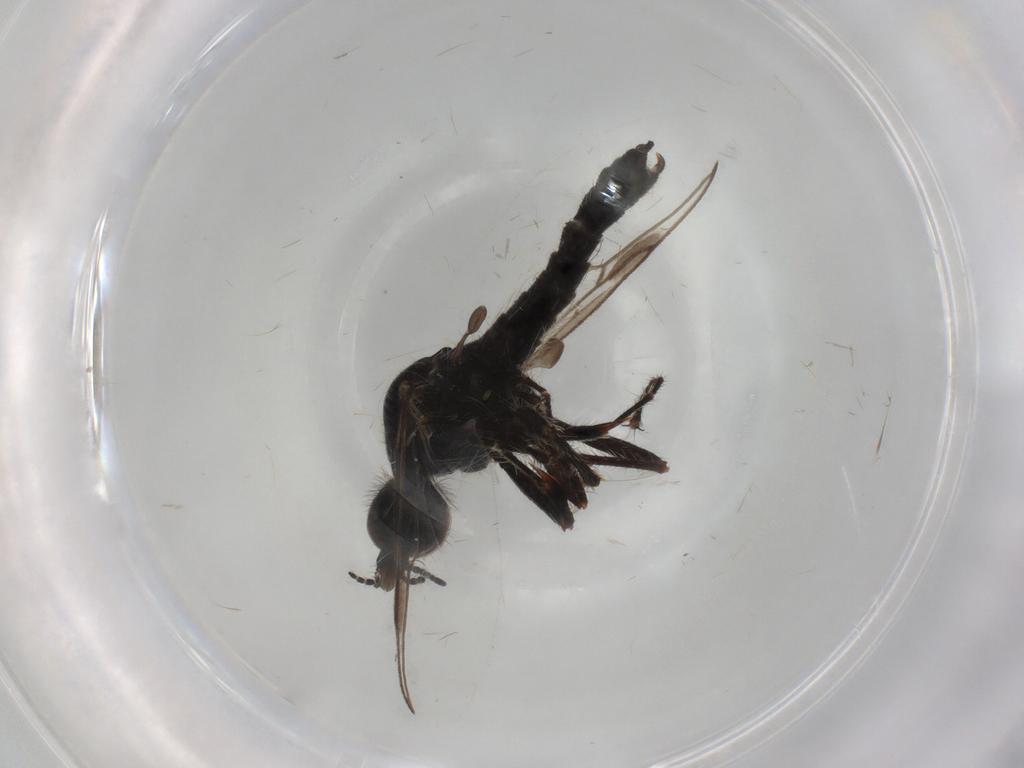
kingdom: Animalia
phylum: Arthropoda
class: Insecta
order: Diptera
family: Bibionidae
